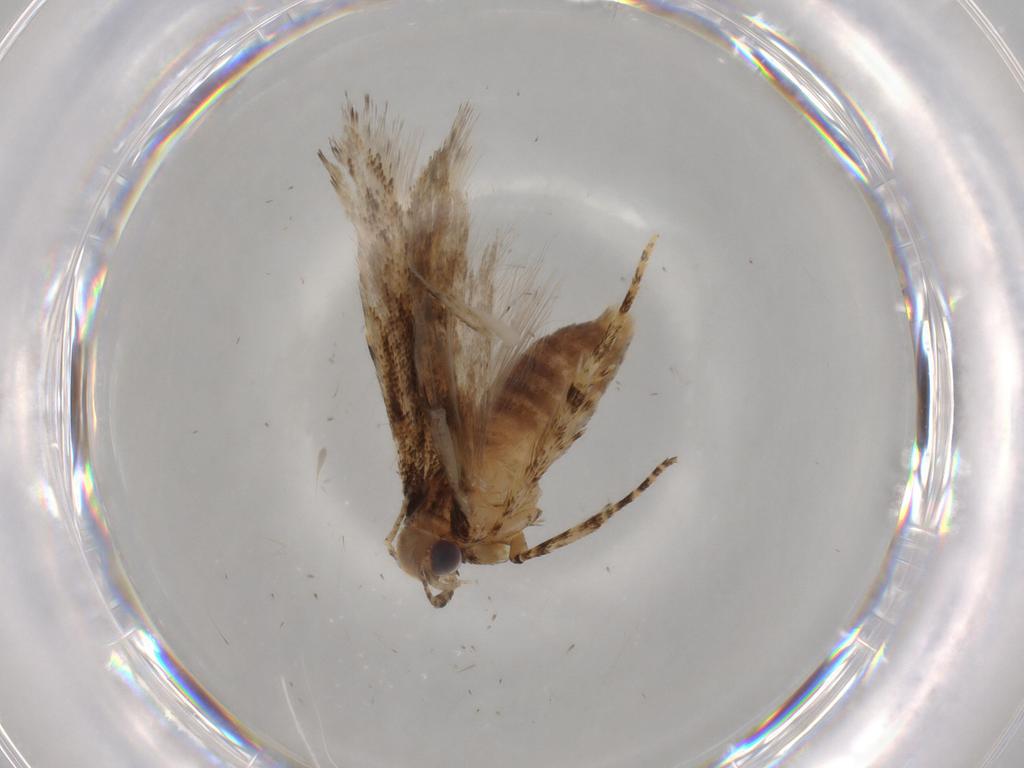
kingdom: Animalia
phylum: Arthropoda
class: Insecta
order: Lepidoptera
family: Gelechiidae
